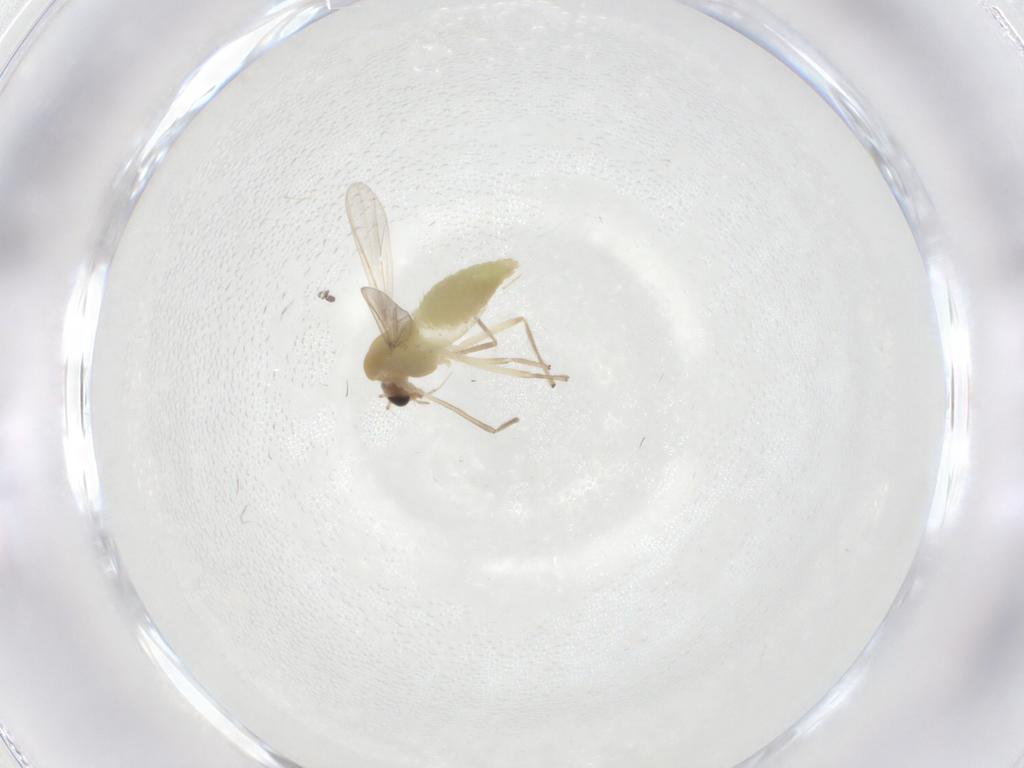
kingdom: Animalia
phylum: Arthropoda
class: Insecta
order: Diptera
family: Chironomidae
